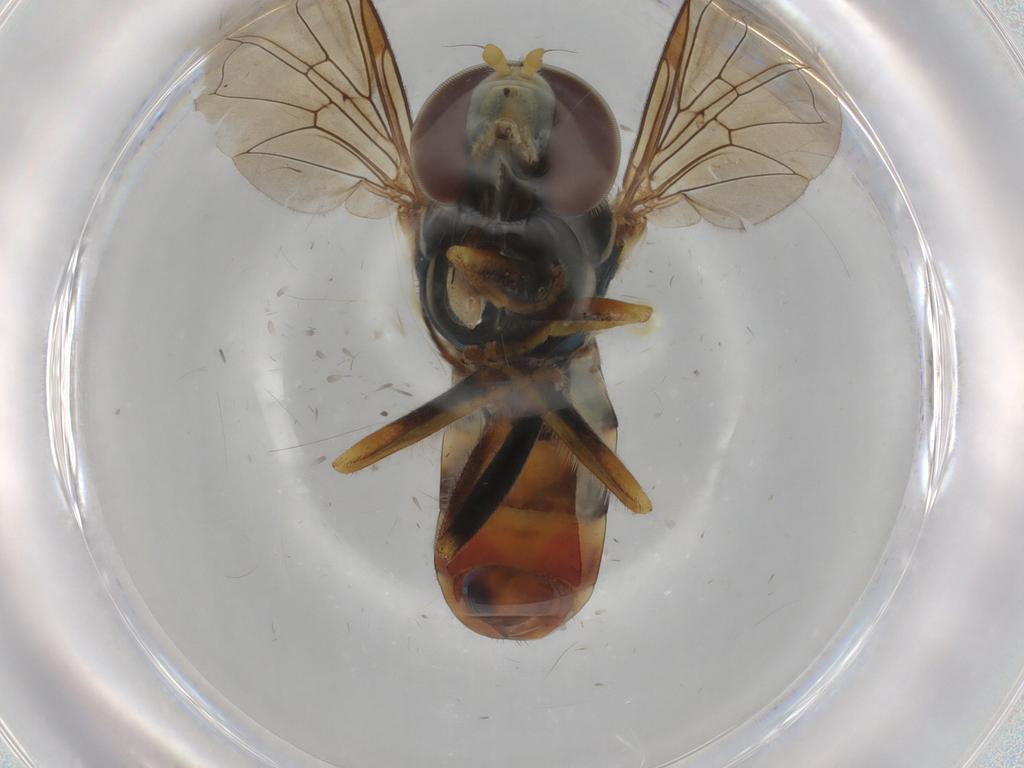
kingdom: Animalia
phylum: Arthropoda
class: Insecta
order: Diptera
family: Syrphidae
